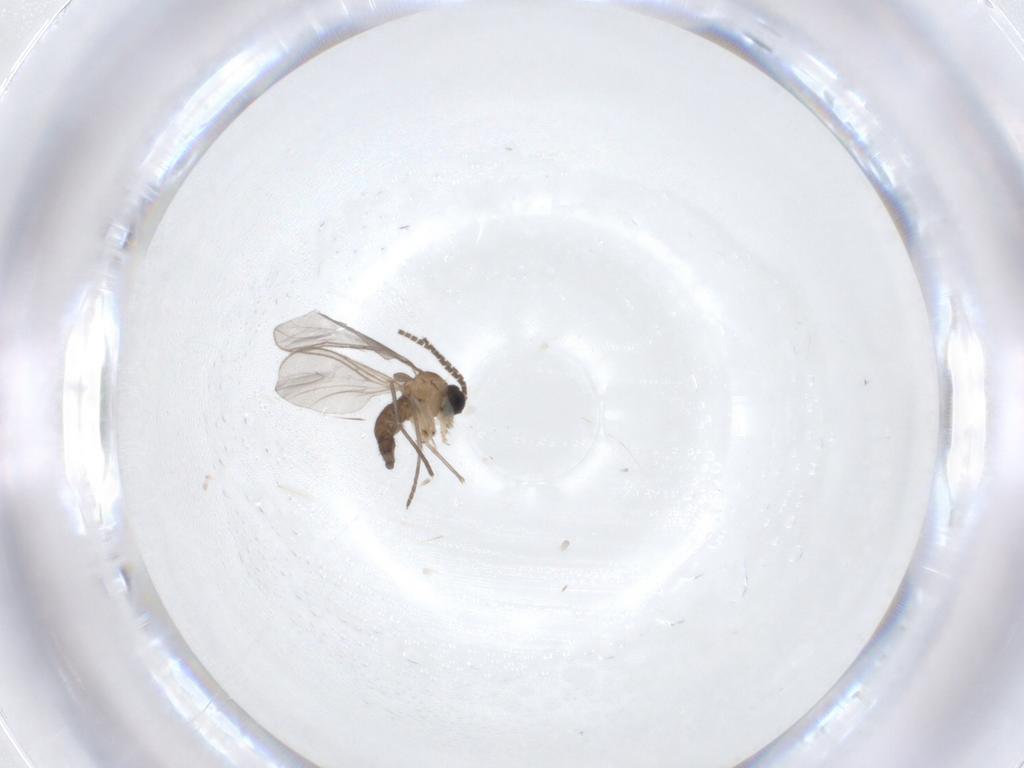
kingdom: Animalia
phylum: Arthropoda
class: Insecta
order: Diptera
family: Sciaridae
